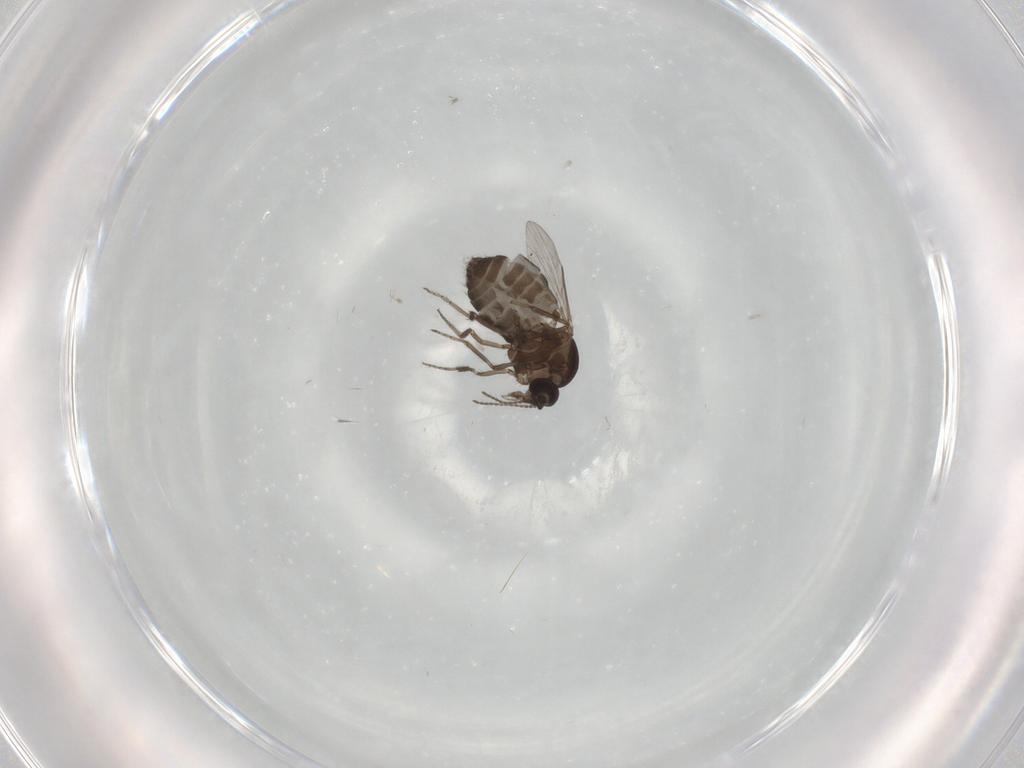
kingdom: Animalia
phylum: Arthropoda
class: Insecta
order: Diptera
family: Ceratopogonidae
